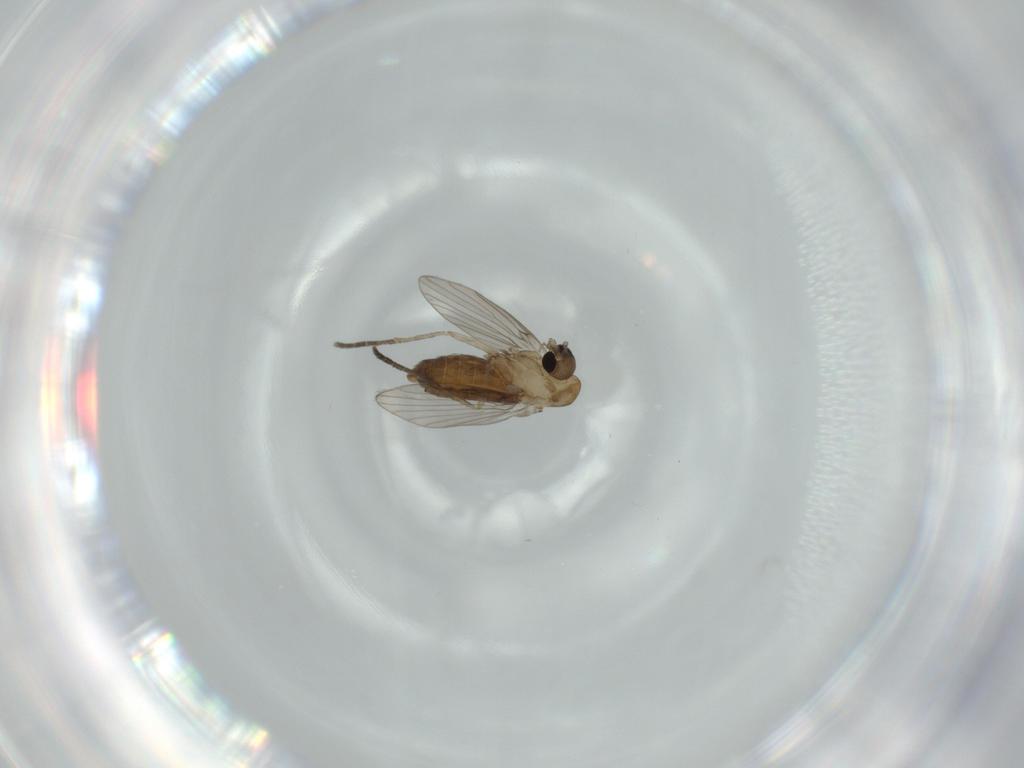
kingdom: Animalia
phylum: Arthropoda
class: Insecta
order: Diptera
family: Psychodidae
